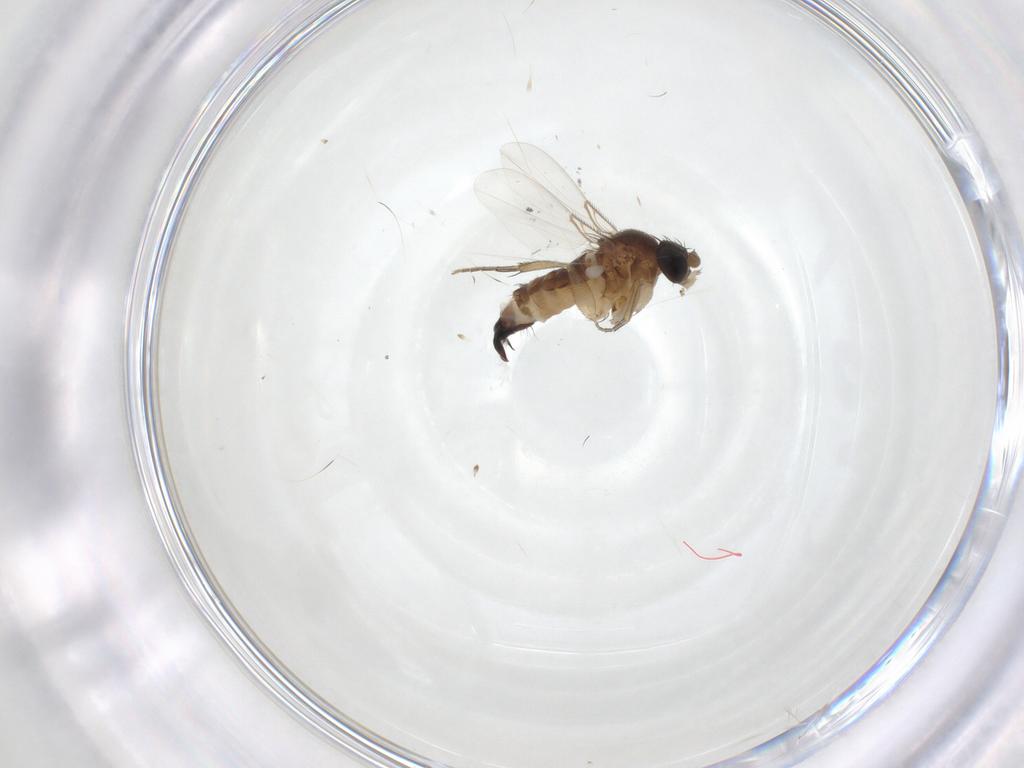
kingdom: Animalia
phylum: Arthropoda
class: Insecta
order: Diptera
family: Phoridae
